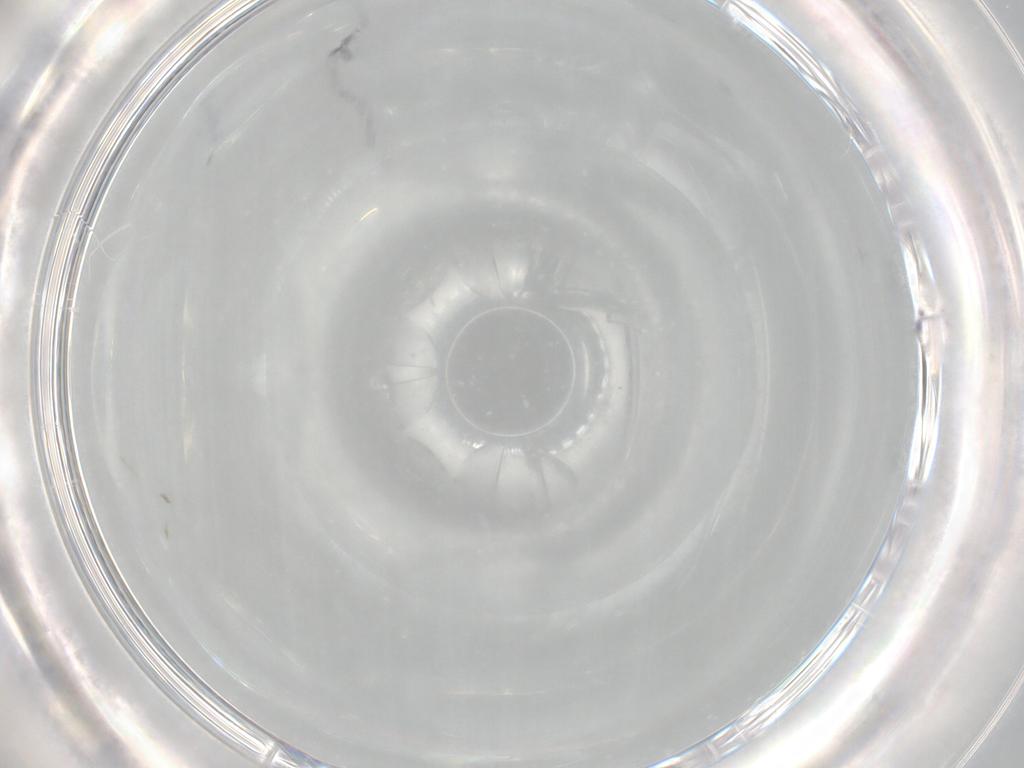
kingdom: Animalia
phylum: Arthropoda
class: Collembola
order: Entomobryomorpha
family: Entomobryidae
